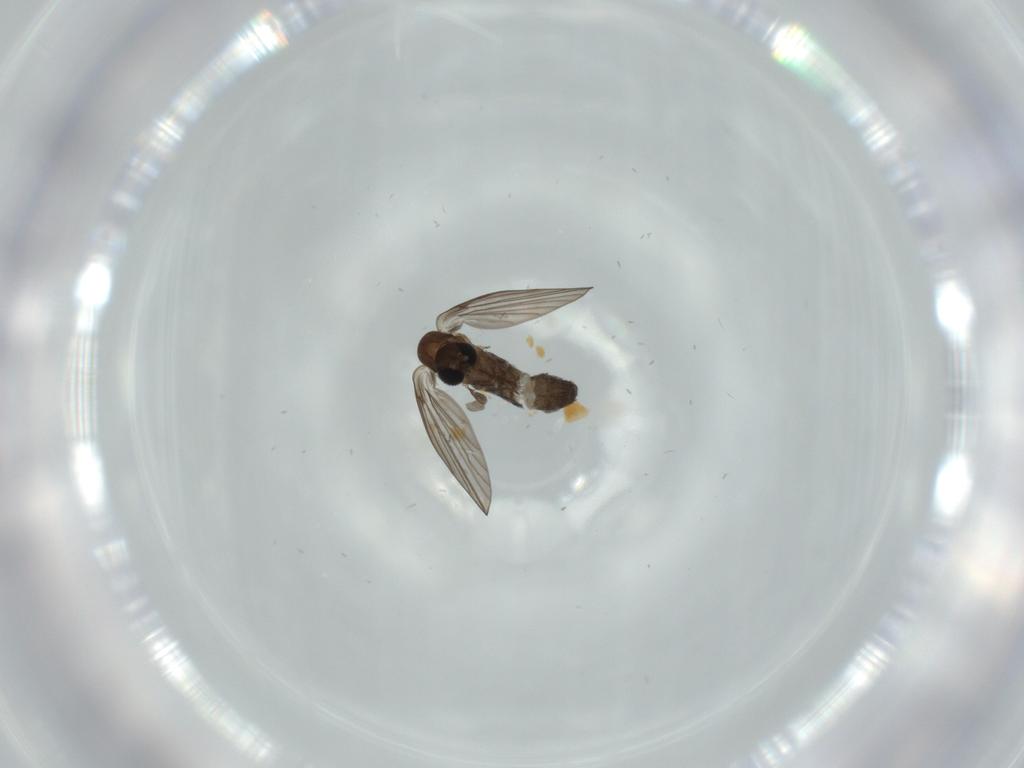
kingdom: Animalia
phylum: Arthropoda
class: Insecta
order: Diptera
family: Psychodidae
